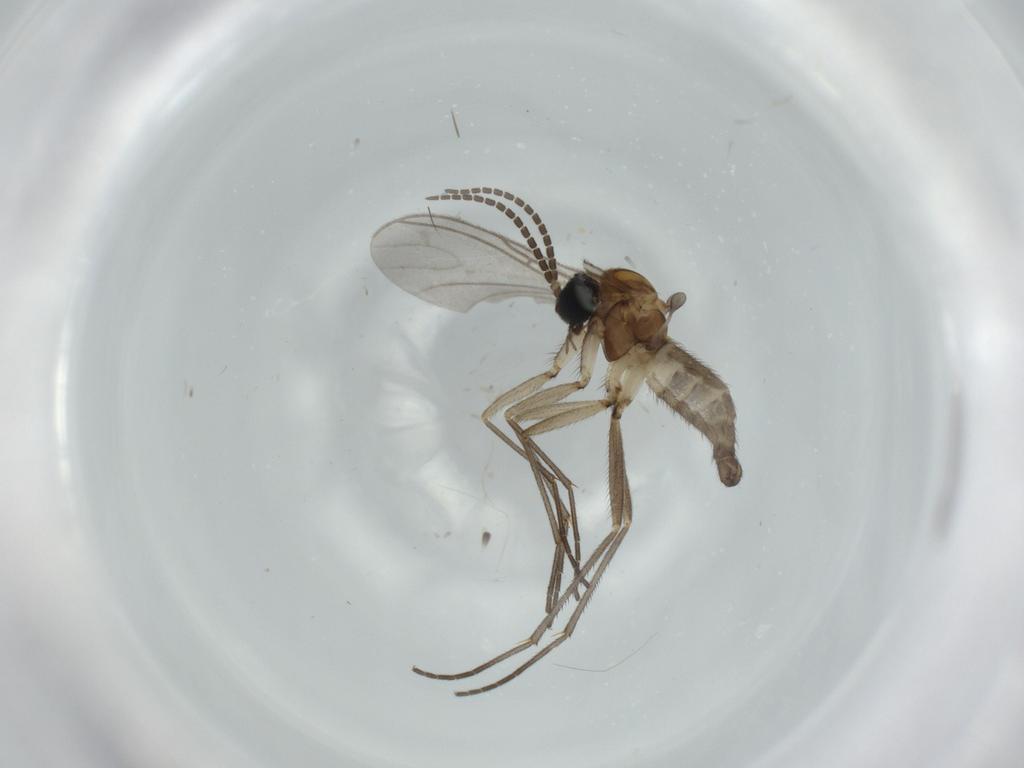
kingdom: Animalia
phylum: Arthropoda
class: Insecta
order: Diptera
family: Sciaridae
